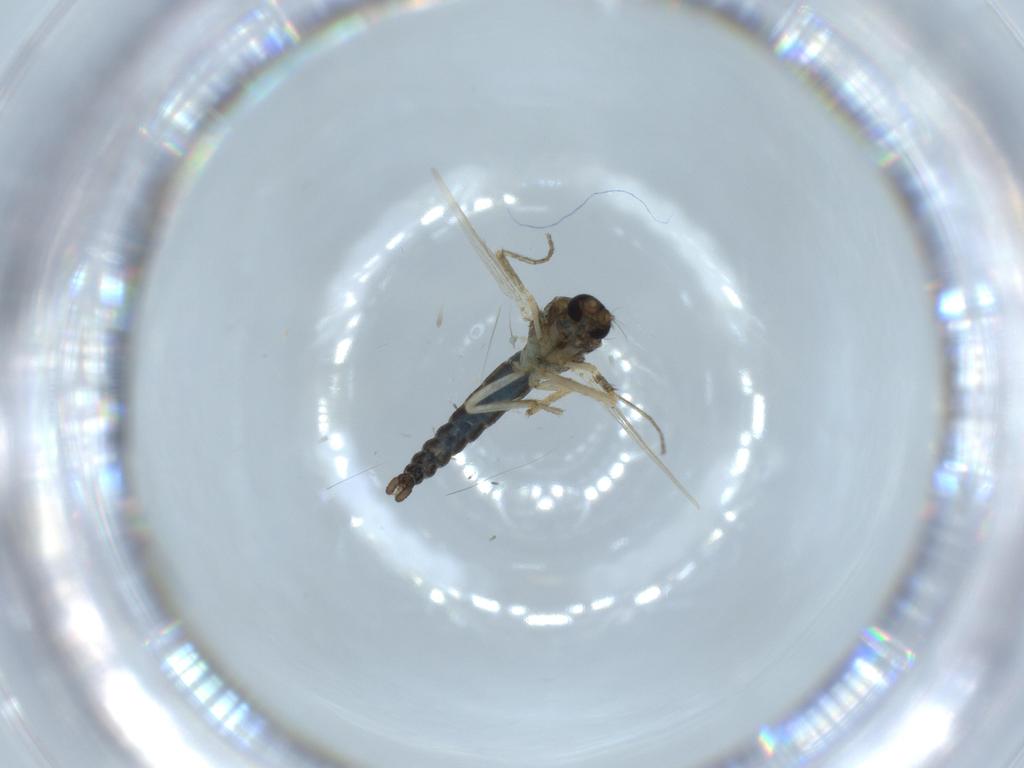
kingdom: Animalia
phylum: Arthropoda
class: Insecta
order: Diptera
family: Ceratopogonidae
